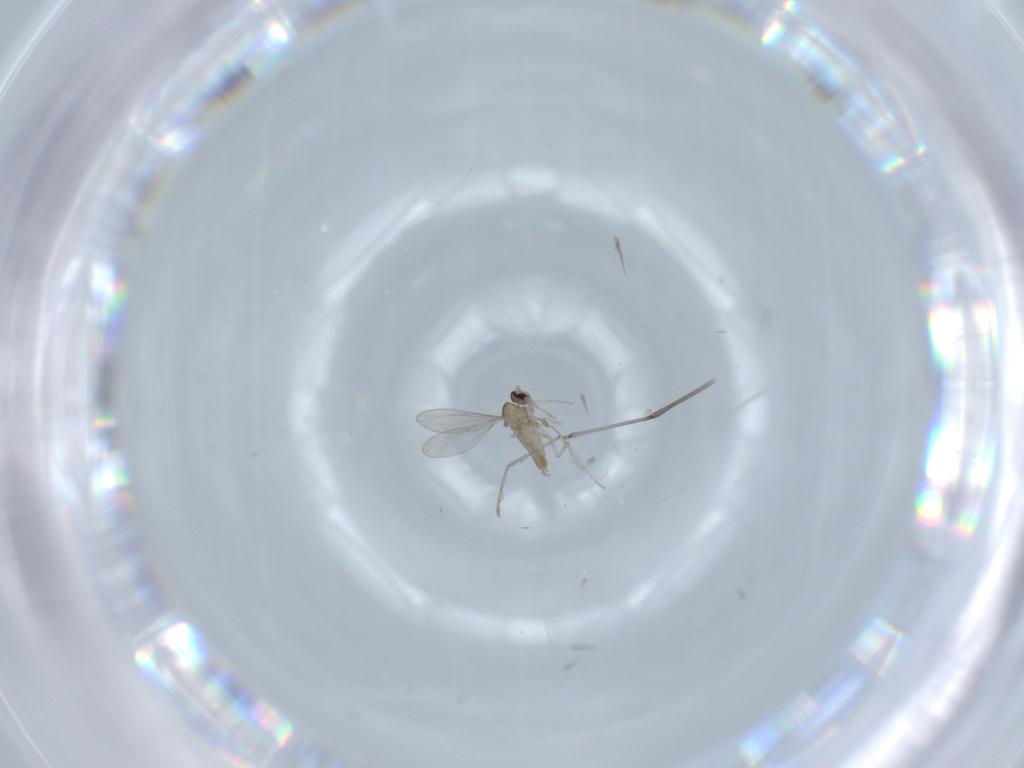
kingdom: Animalia
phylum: Arthropoda
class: Insecta
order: Diptera
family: Cecidomyiidae
